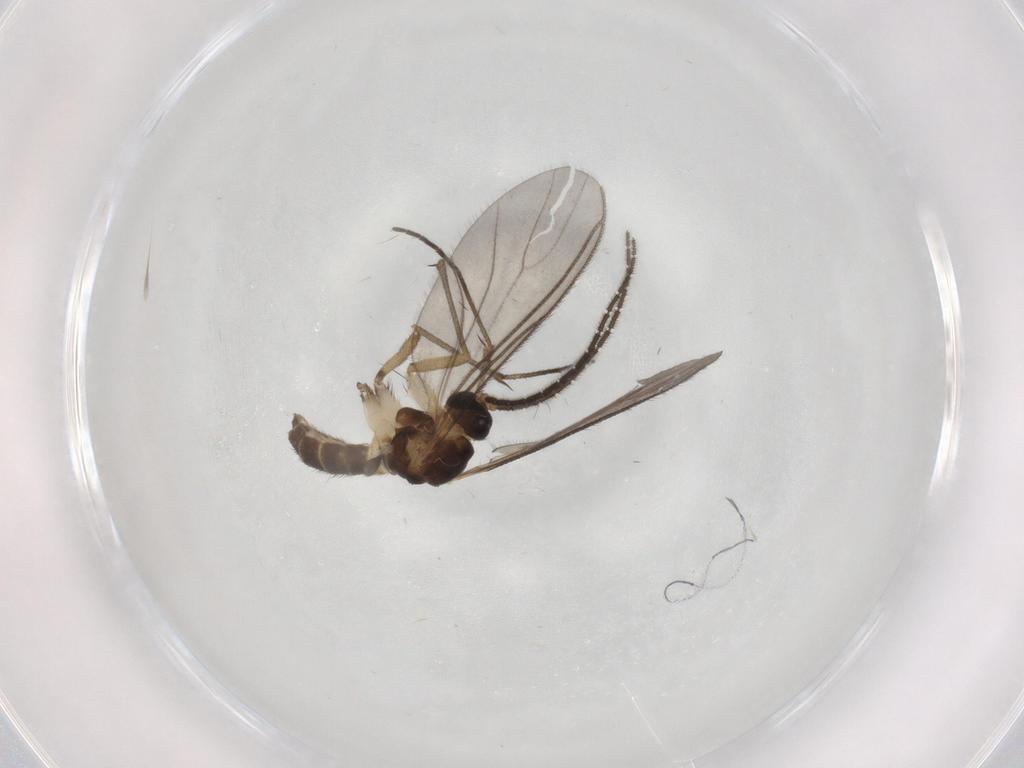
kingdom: Animalia
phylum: Arthropoda
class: Insecta
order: Diptera
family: Sciaridae
